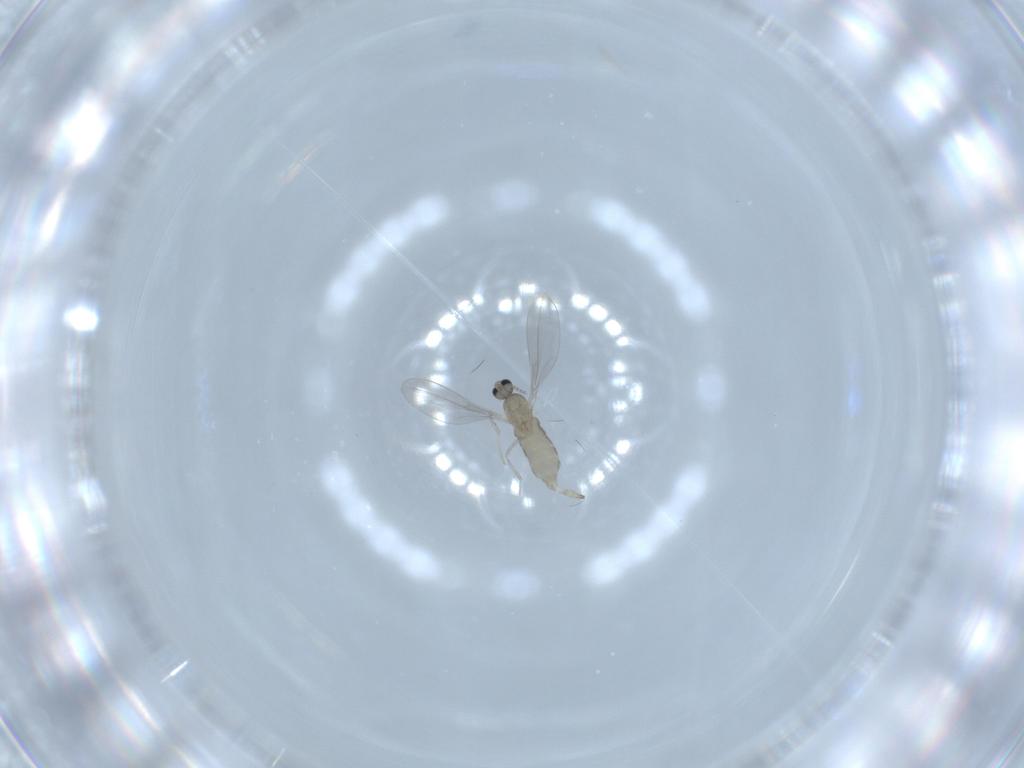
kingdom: Animalia
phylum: Arthropoda
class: Insecta
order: Diptera
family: Cecidomyiidae
